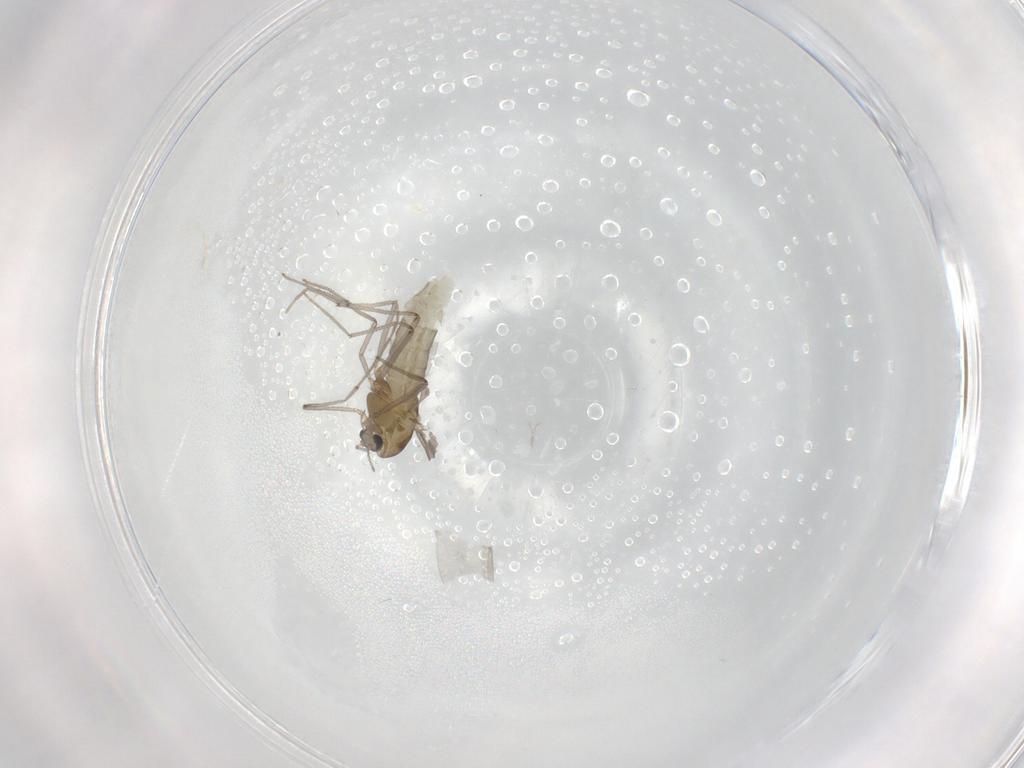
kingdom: Animalia
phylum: Arthropoda
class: Insecta
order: Diptera
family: Chironomidae
